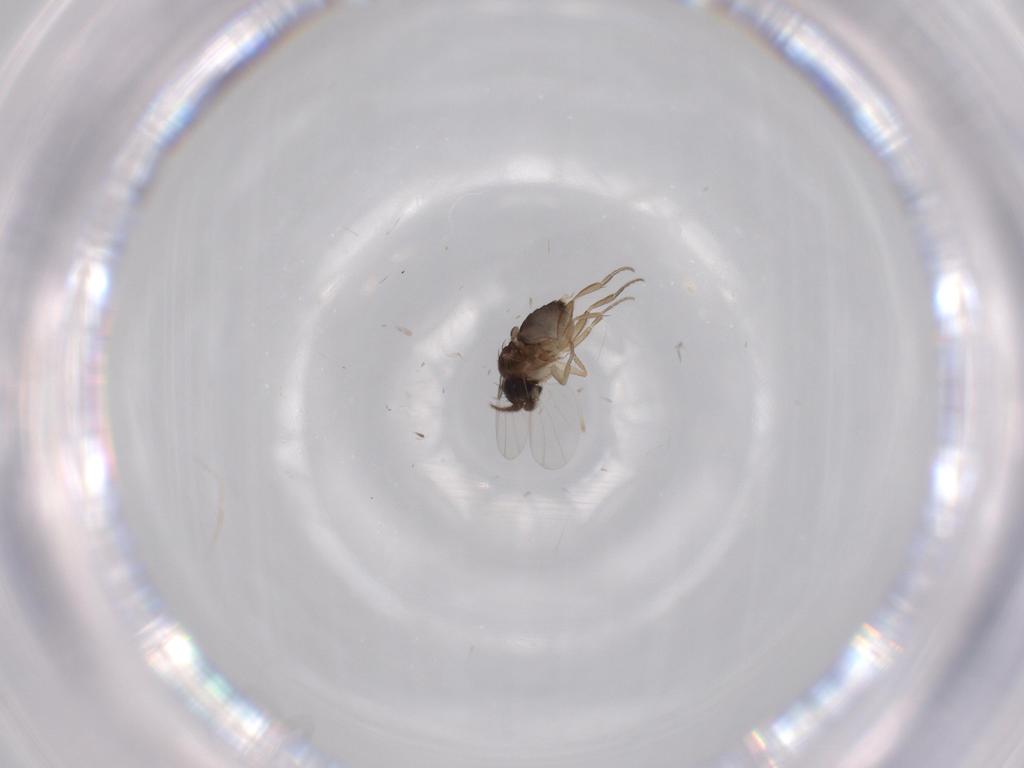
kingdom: Animalia
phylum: Arthropoda
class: Insecta
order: Diptera
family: Phoridae
